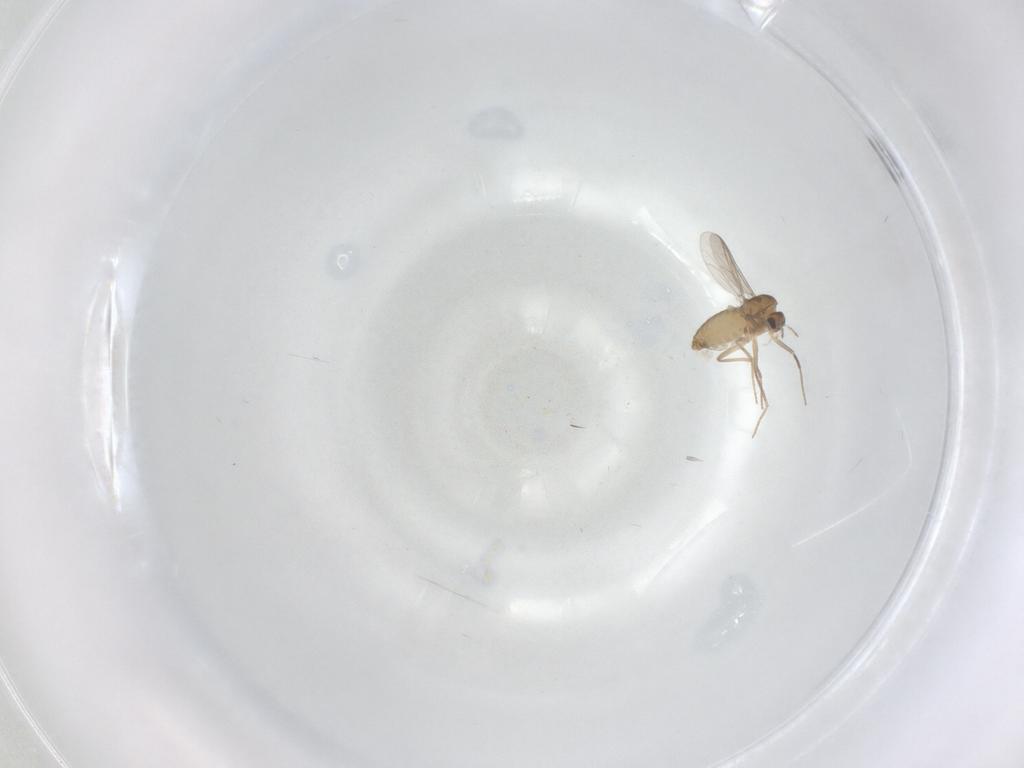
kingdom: Animalia
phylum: Arthropoda
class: Insecta
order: Diptera
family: Chironomidae
